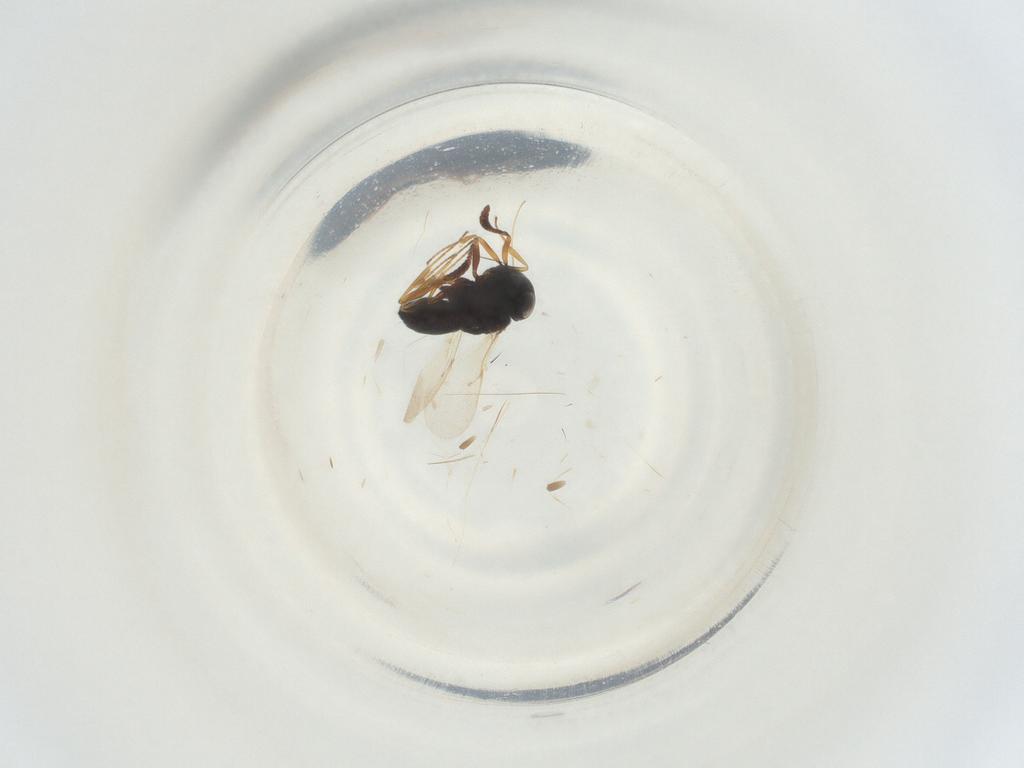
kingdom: Animalia
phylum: Arthropoda
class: Insecta
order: Hymenoptera
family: Scelionidae
